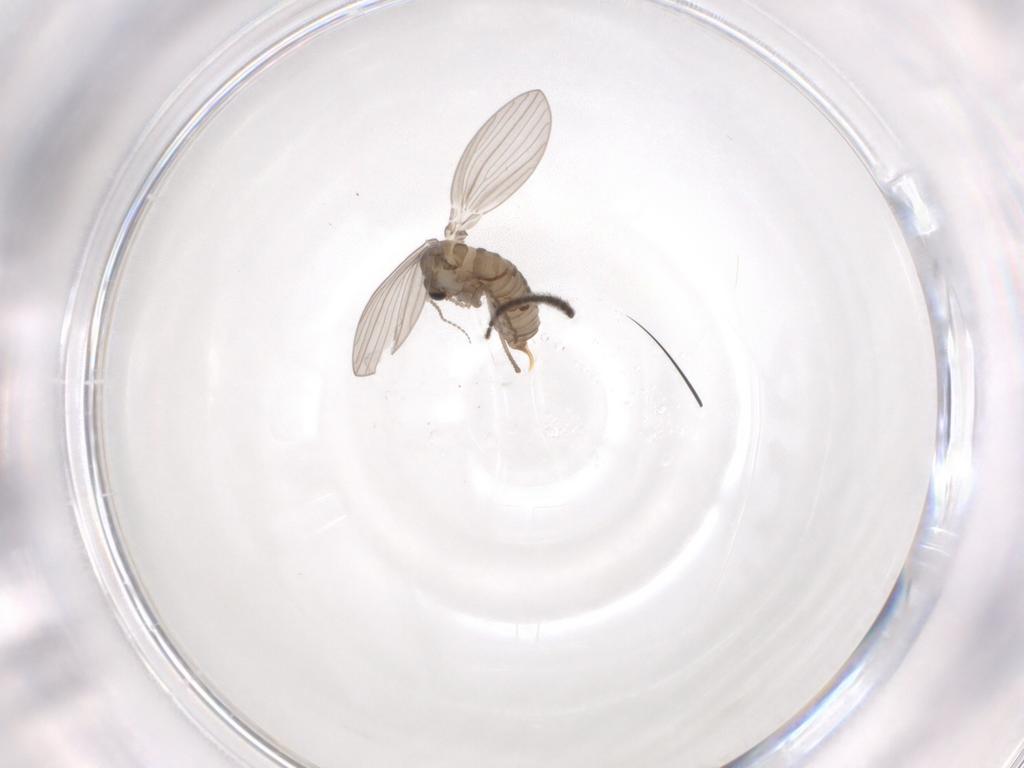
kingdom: Animalia
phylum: Arthropoda
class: Insecta
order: Diptera
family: Psychodidae
